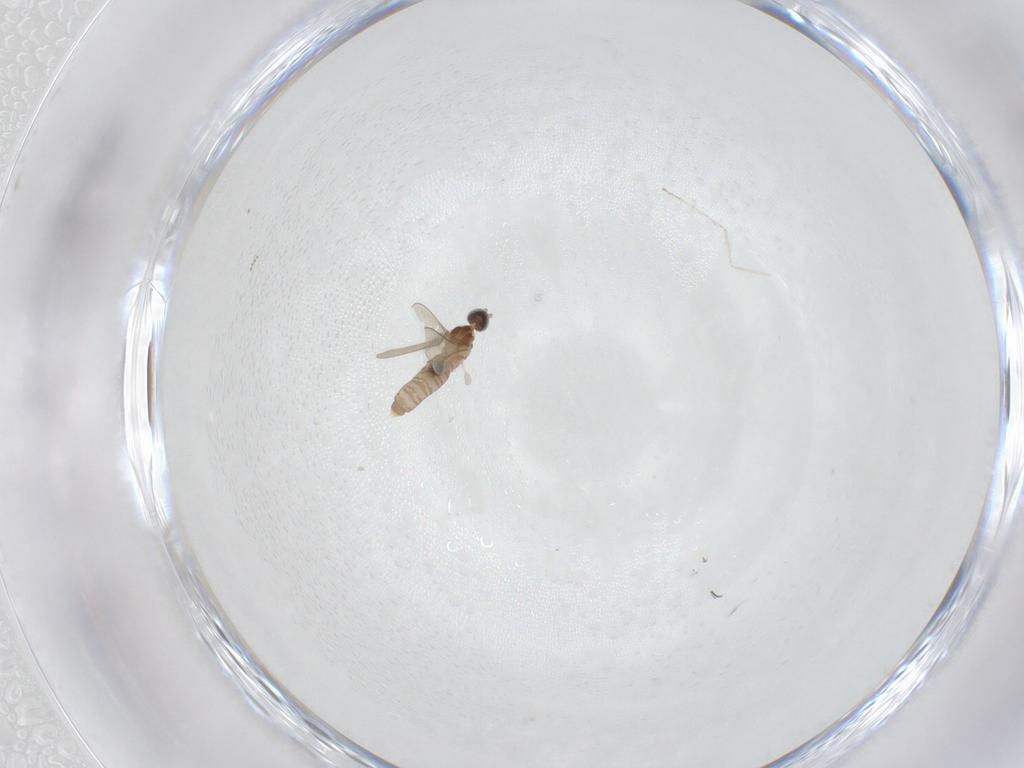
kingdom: Animalia
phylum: Arthropoda
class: Insecta
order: Diptera
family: Cecidomyiidae
